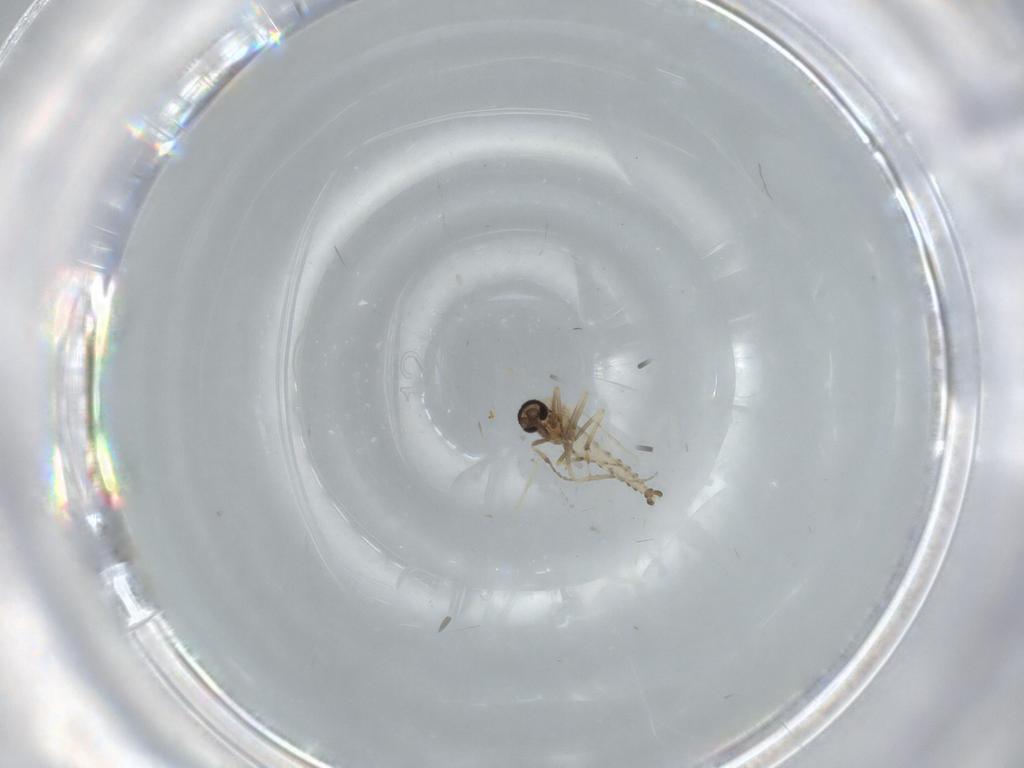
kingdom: Animalia
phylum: Arthropoda
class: Insecta
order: Diptera
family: Ceratopogonidae
